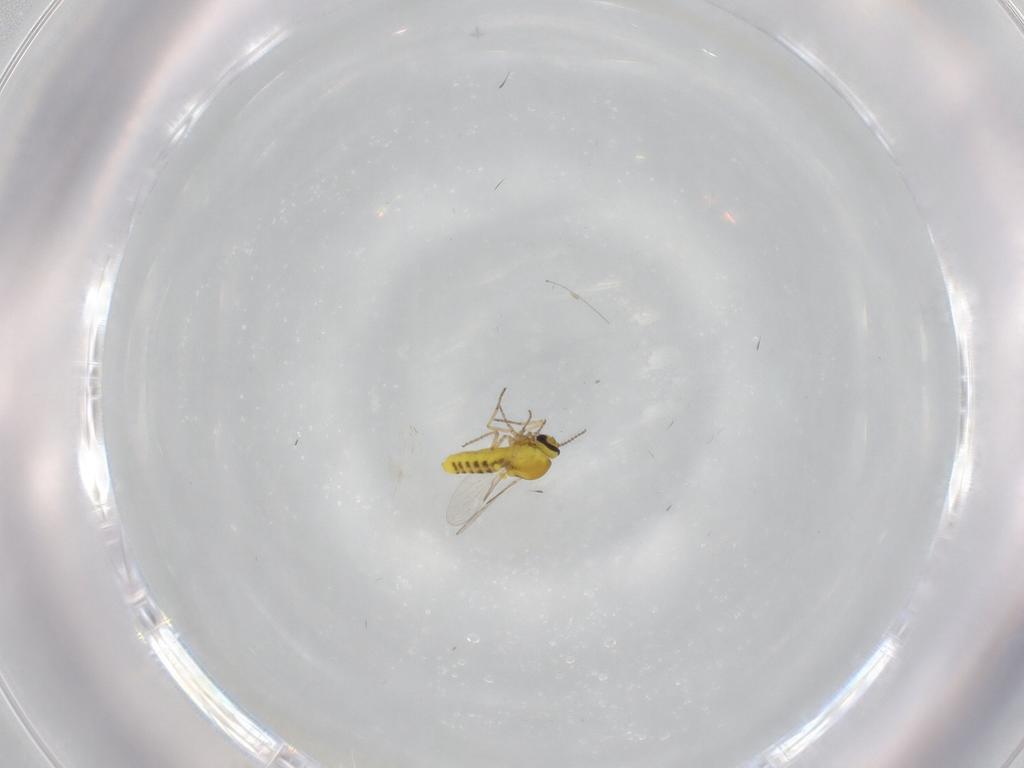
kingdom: Animalia
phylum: Arthropoda
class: Insecta
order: Diptera
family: Ceratopogonidae
